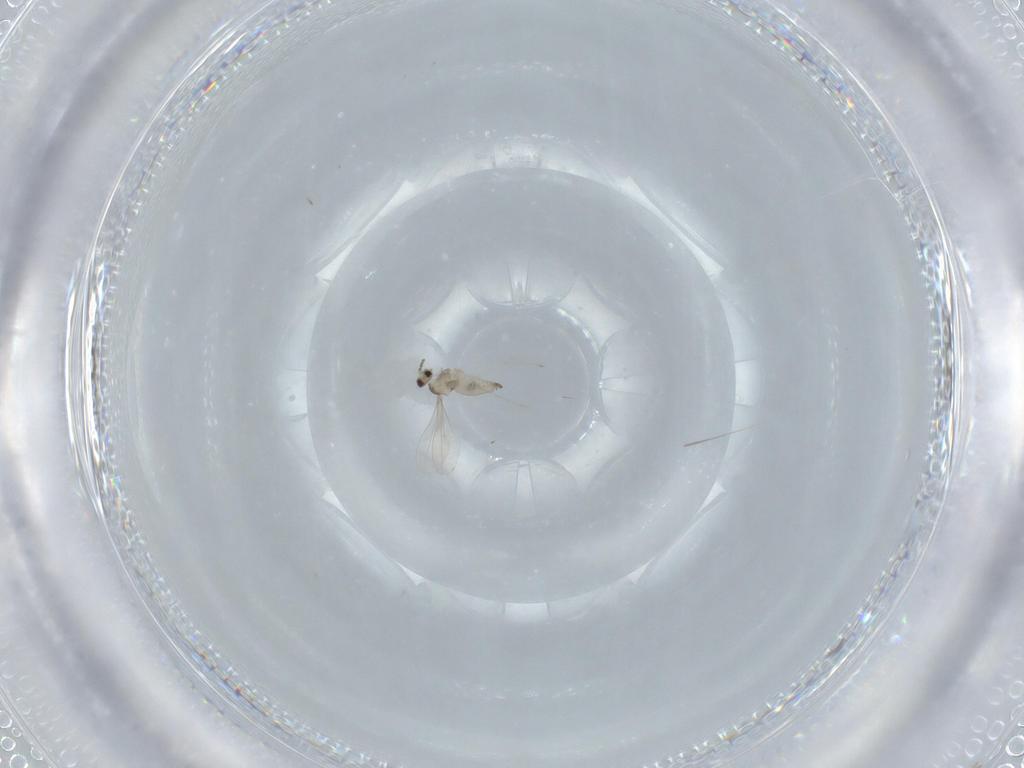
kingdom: Animalia
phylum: Arthropoda
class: Insecta
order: Diptera
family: Cecidomyiidae
